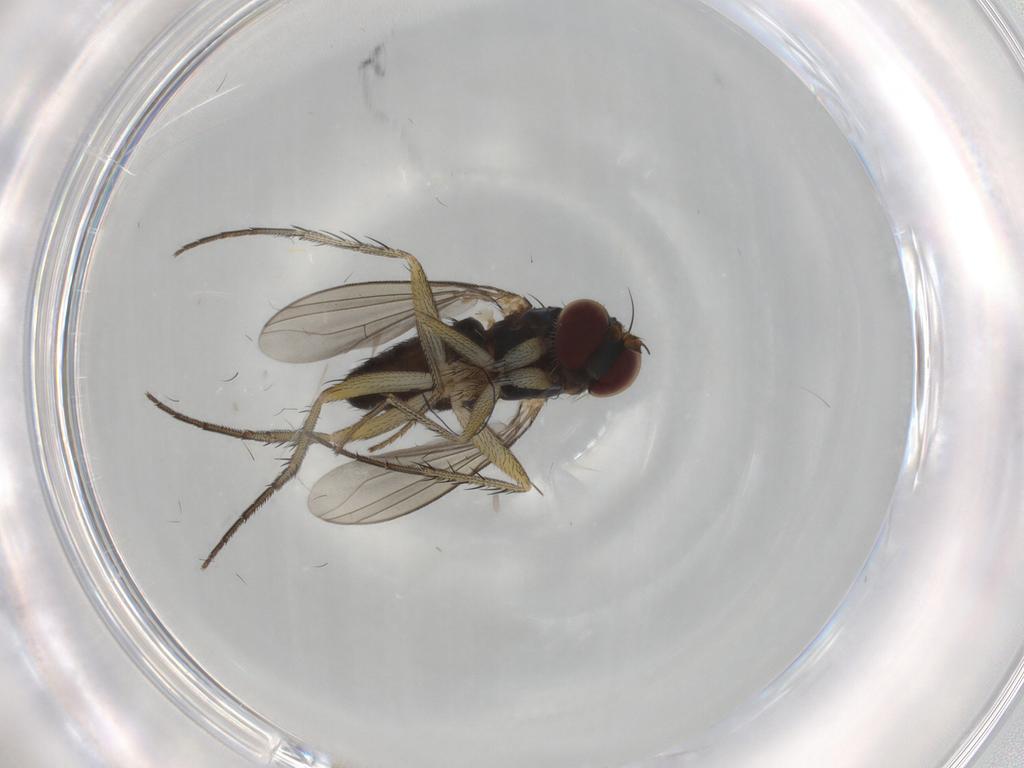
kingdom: Animalia
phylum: Arthropoda
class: Insecta
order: Diptera
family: Dolichopodidae
